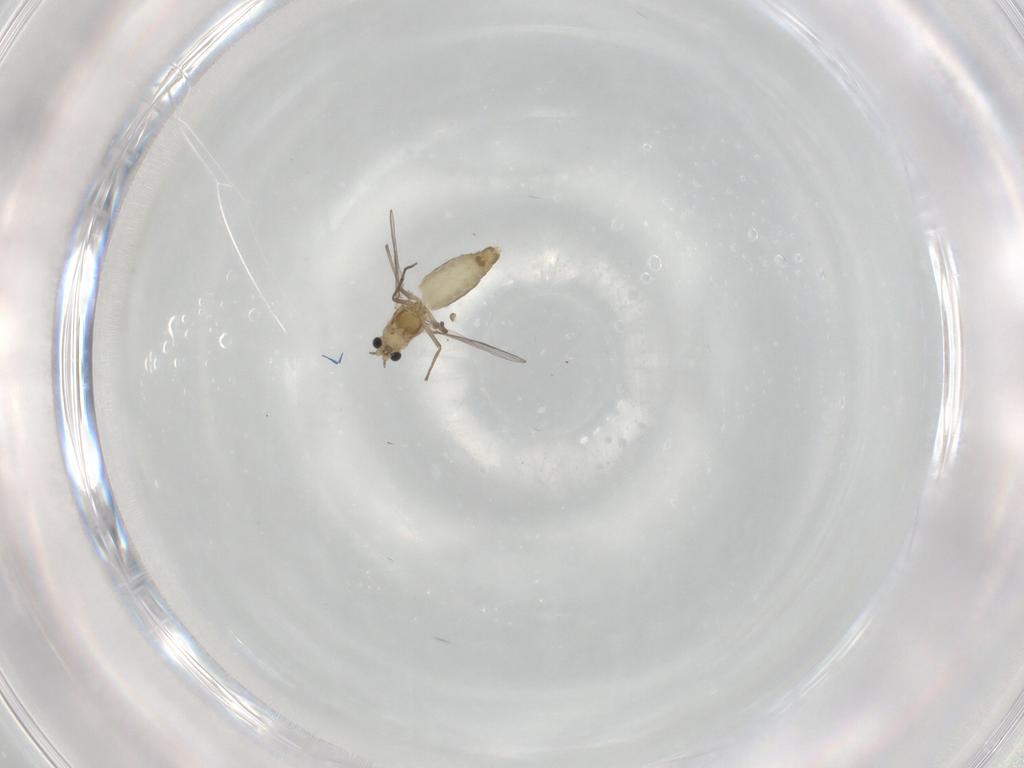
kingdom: Animalia
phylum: Arthropoda
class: Insecta
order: Diptera
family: Chironomidae
